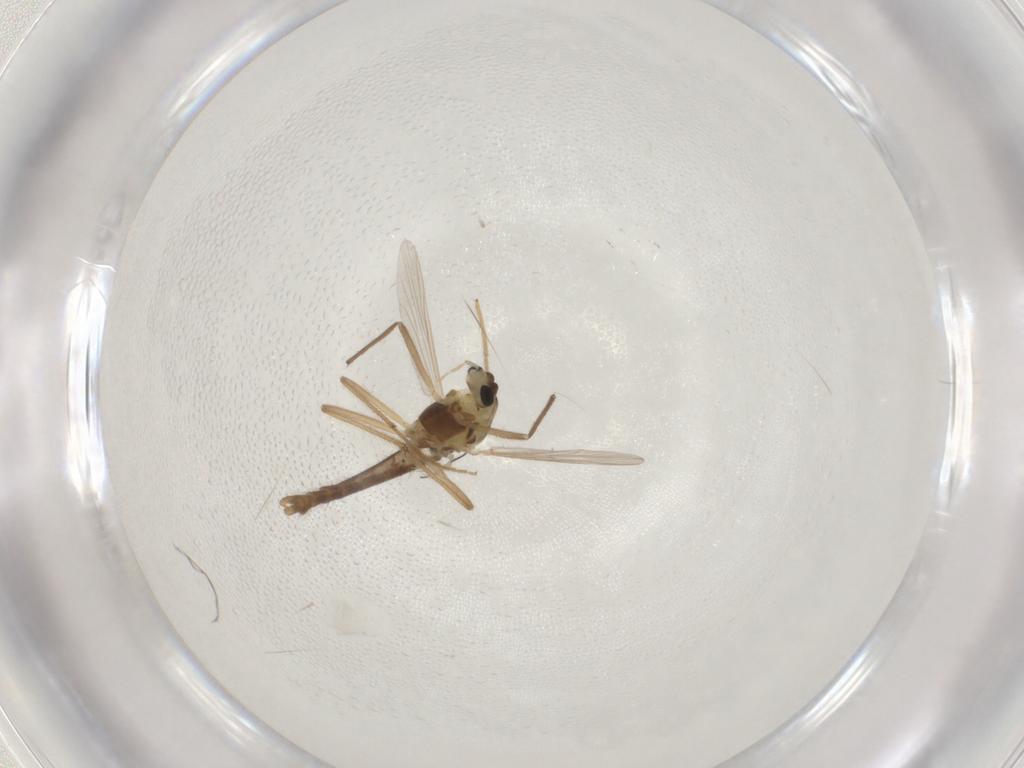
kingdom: Animalia
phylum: Arthropoda
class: Insecta
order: Diptera
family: Chironomidae
